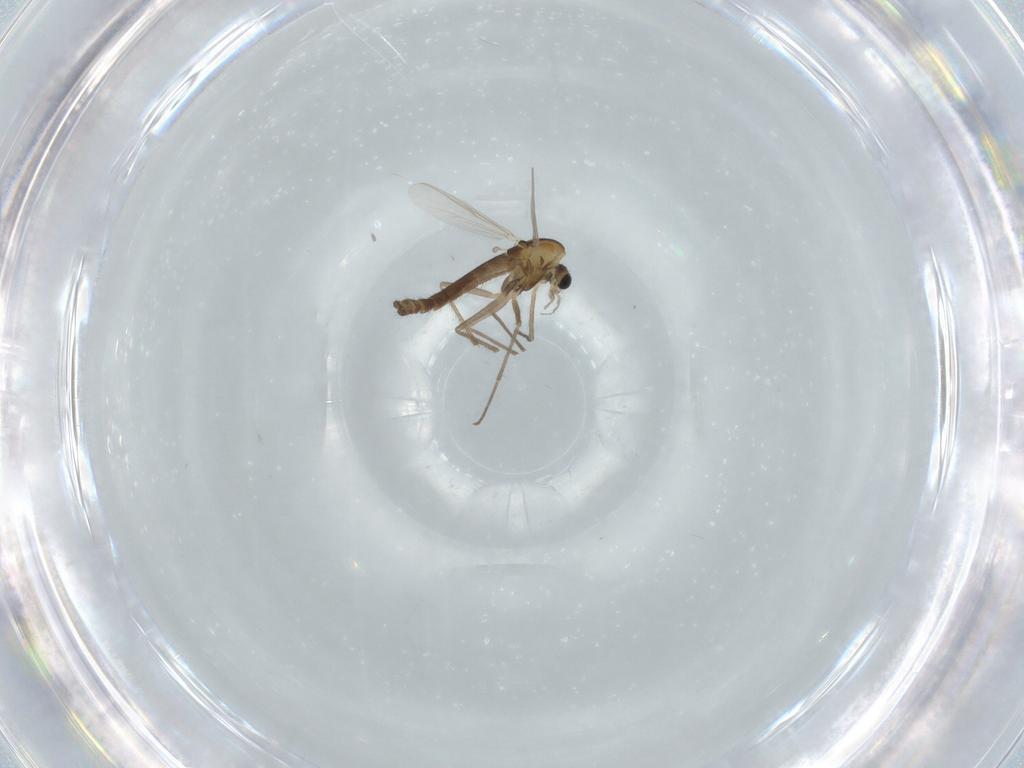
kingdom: Animalia
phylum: Arthropoda
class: Insecta
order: Diptera
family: Chironomidae
